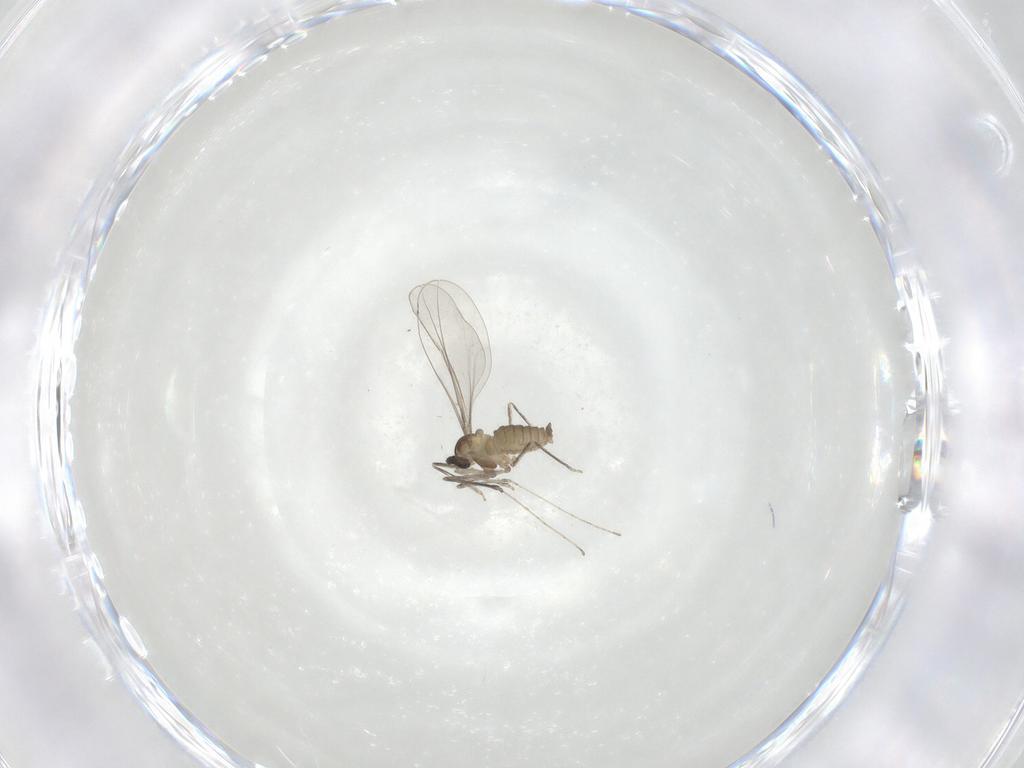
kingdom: Animalia
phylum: Arthropoda
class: Insecta
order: Diptera
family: Cecidomyiidae
